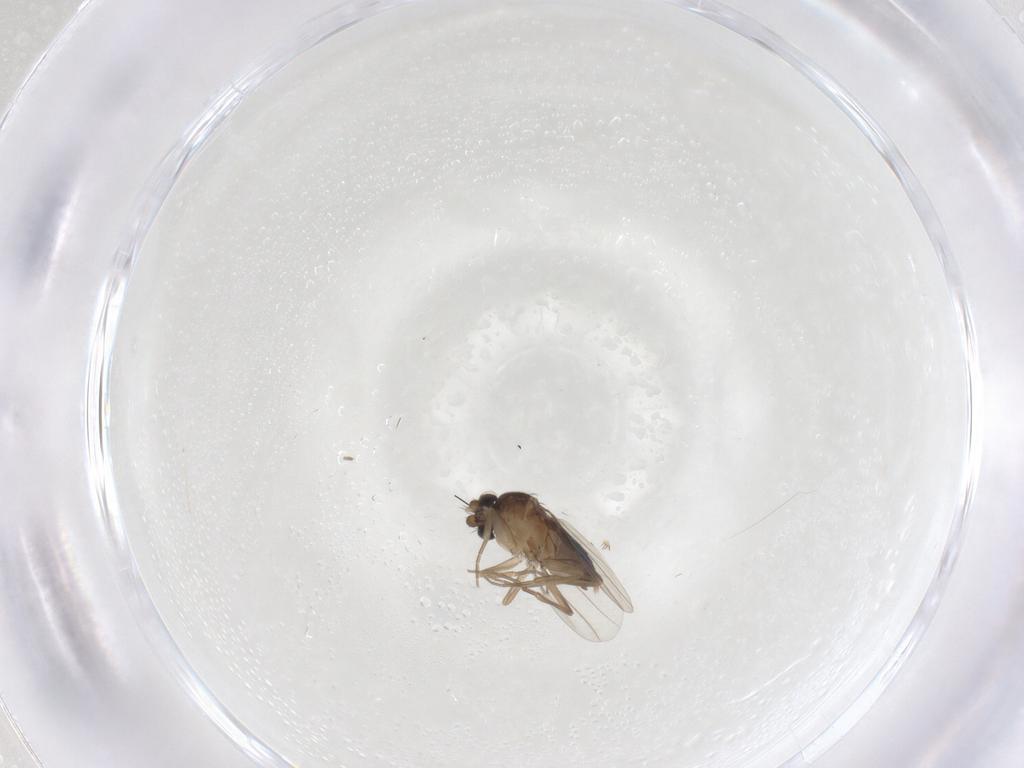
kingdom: Animalia
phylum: Arthropoda
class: Insecta
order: Diptera
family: Phoridae
